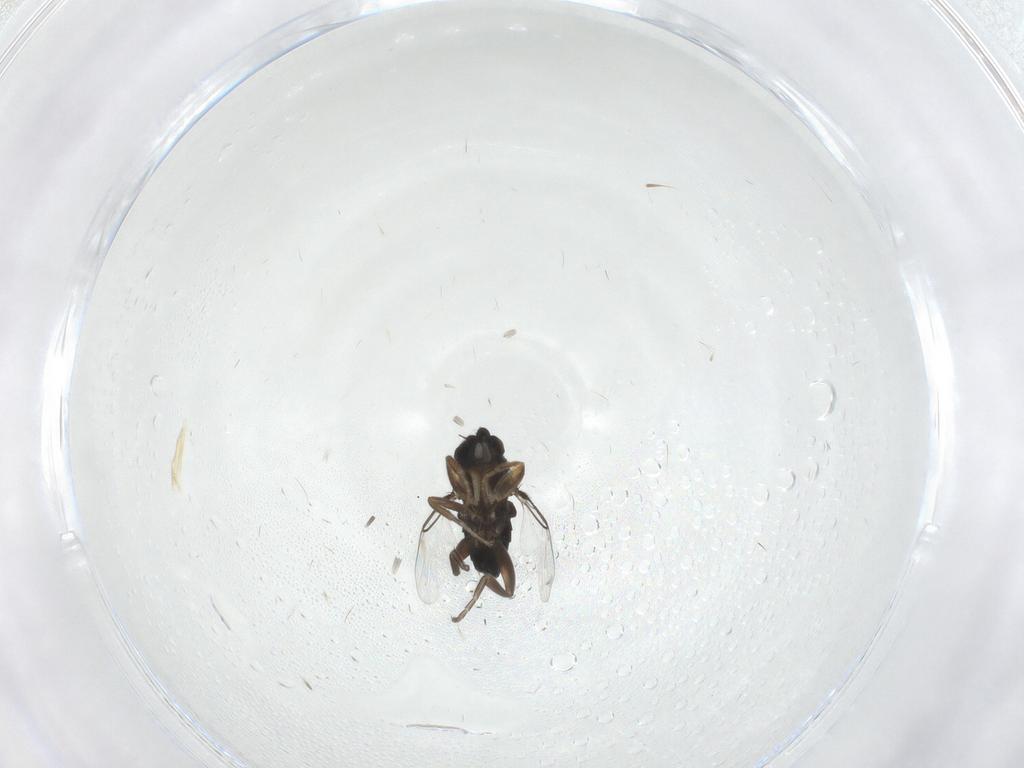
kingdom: Animalia
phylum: Arthropoda
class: Insecta
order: Diptera
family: Phoridae
